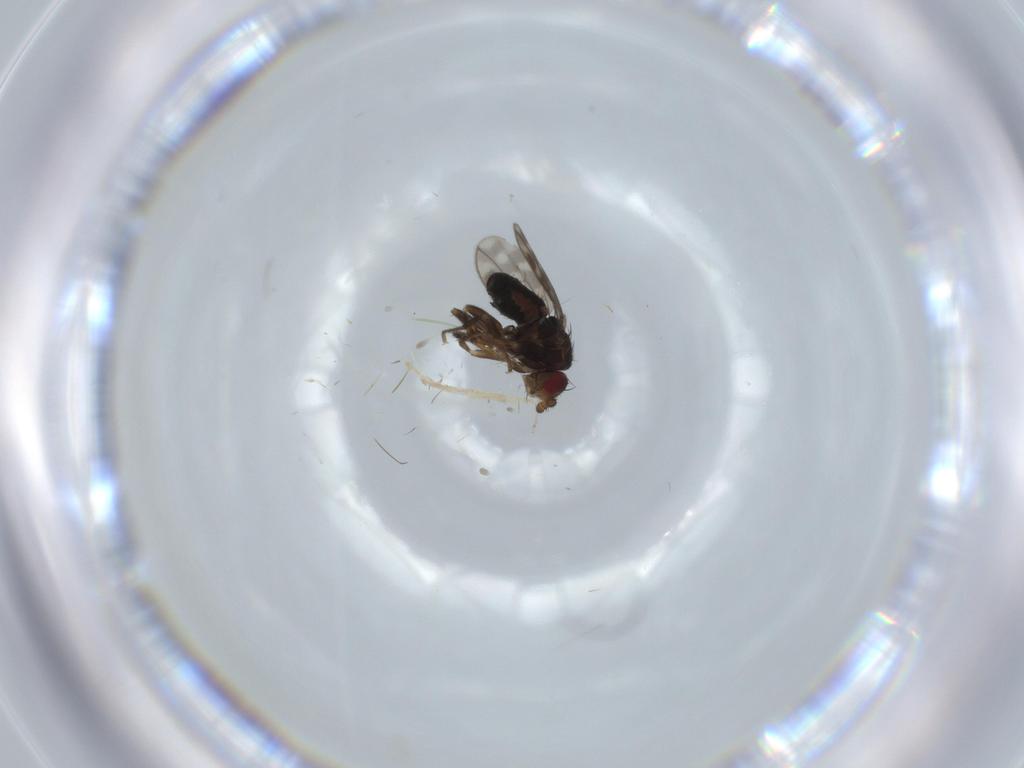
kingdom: Animalia
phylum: Arthropoda
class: Insecta
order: Diptera
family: Sphaeroceridae
